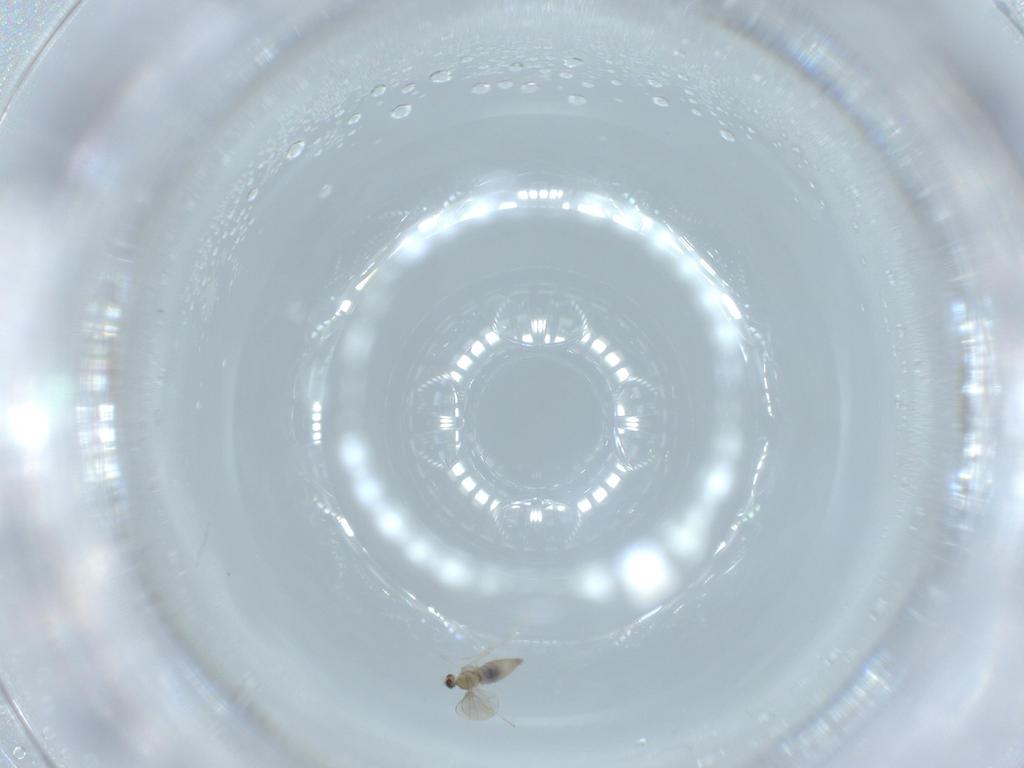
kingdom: Animalia
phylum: Arthropoda
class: Insecta
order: Diptera
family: Cecidomyiidae
